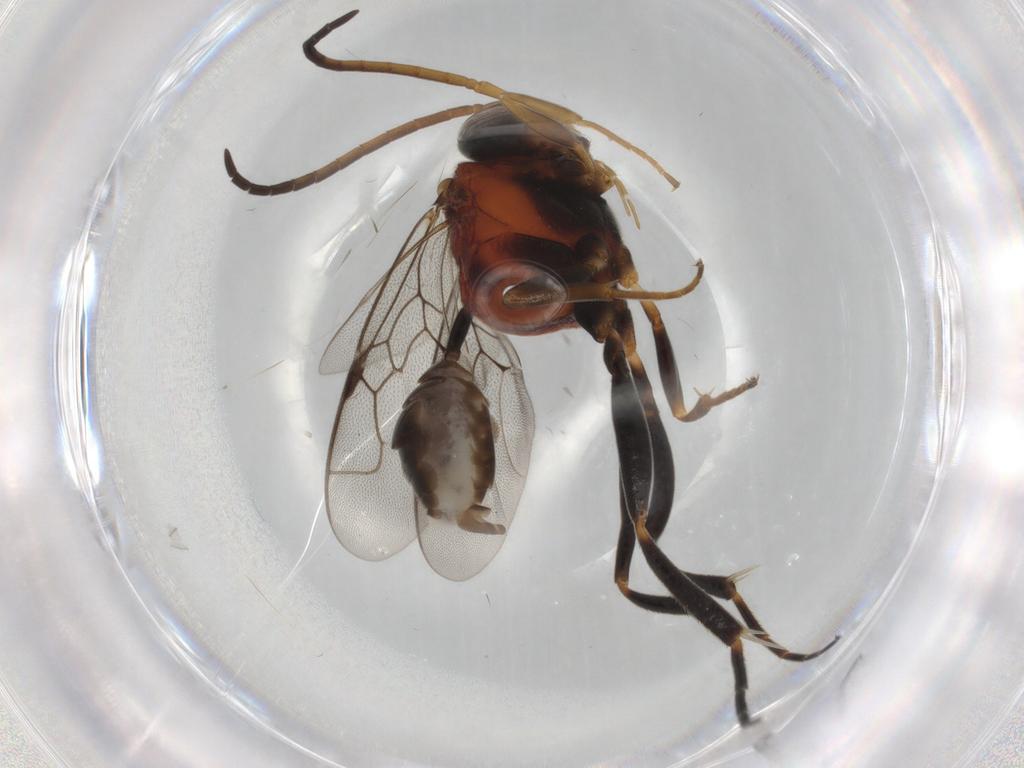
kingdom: Animalia
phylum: Arthropoda
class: Insecta
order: Hymenoptera
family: Evaniidae
